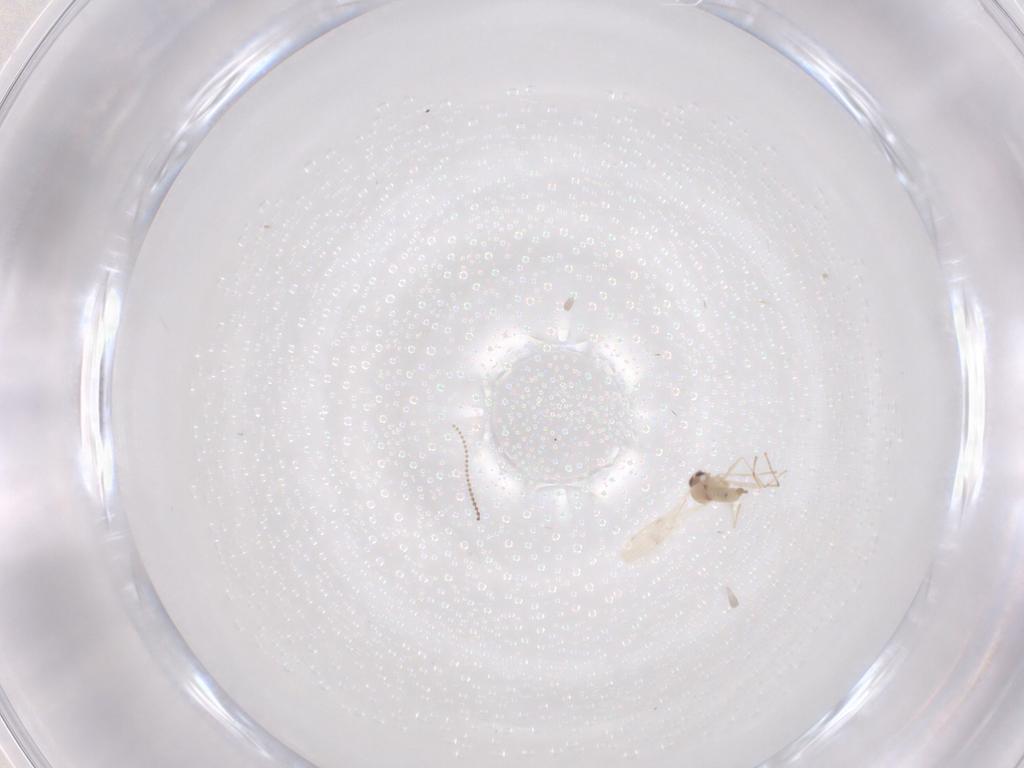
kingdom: Animalia
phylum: Arthropoda
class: Insecta
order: Diptera
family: Cecidomyiidae
